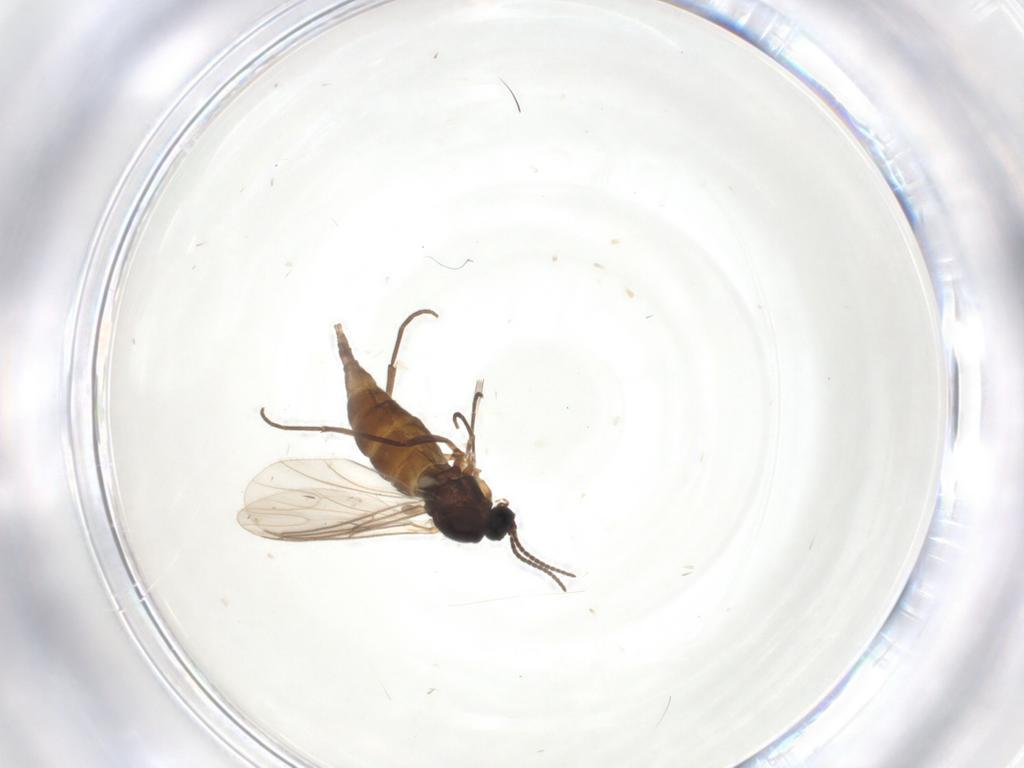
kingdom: Animalia
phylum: Arthropoda
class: Insecta
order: Diptera
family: Sciaridae
